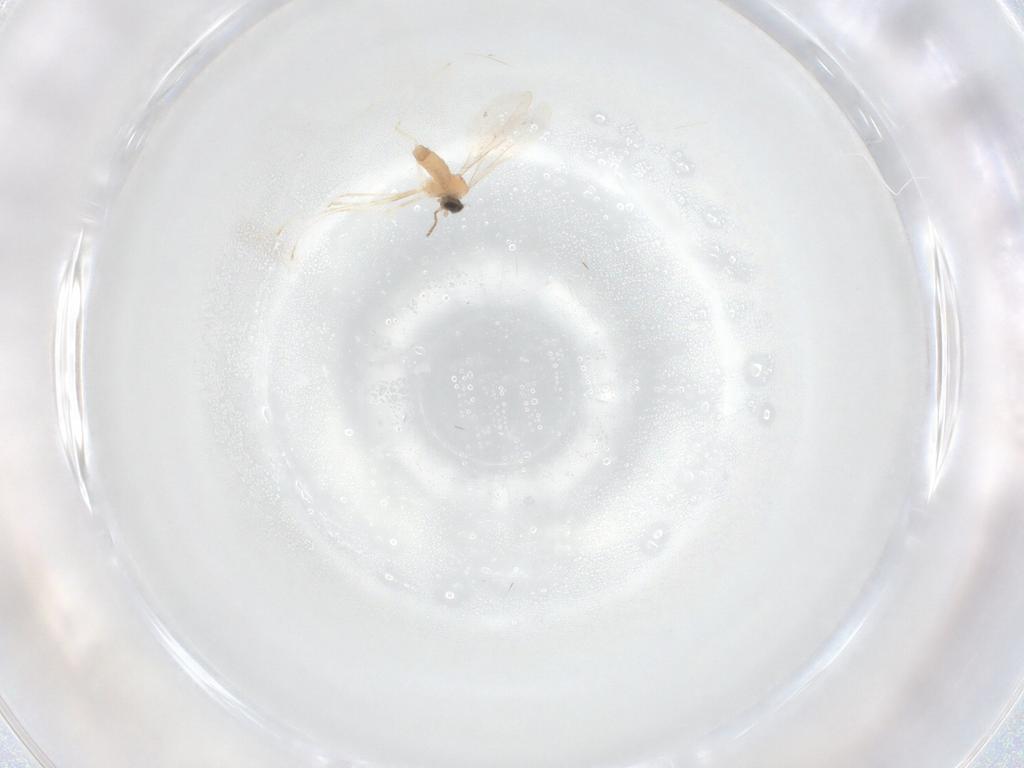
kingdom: Animalia
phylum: Arthropoda
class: Insecta
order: Diptera
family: Cecidomyiidae
